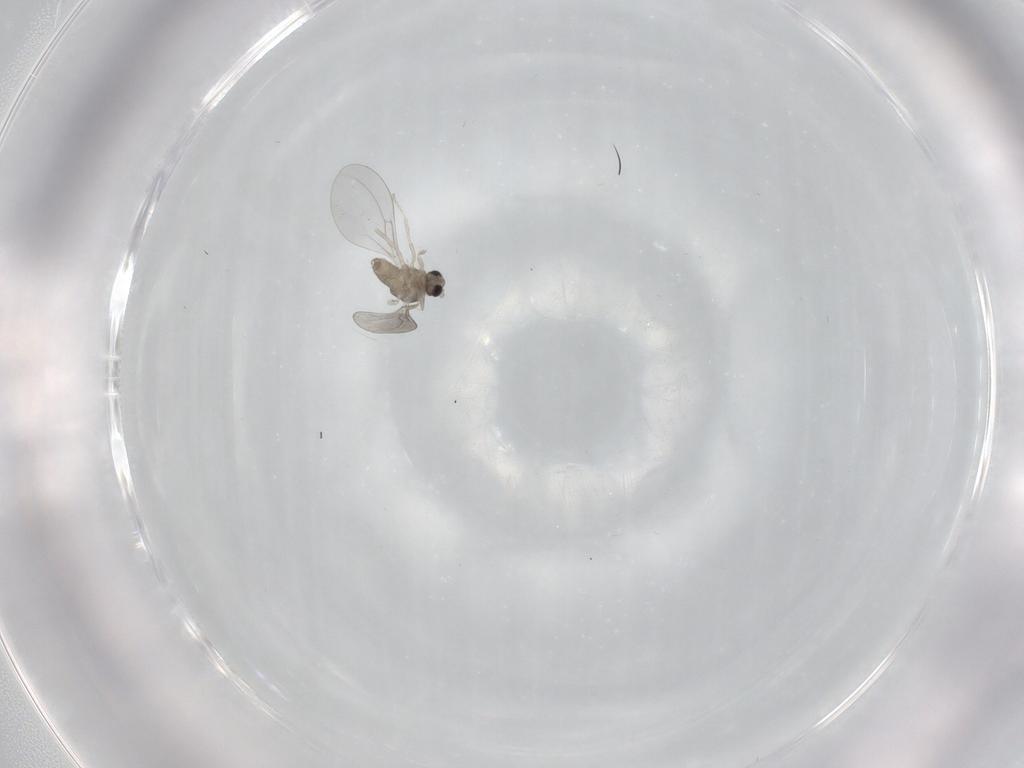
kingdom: Animalia
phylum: Arthropoda
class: Insecta
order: Diptera
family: Cecidomyiidae
